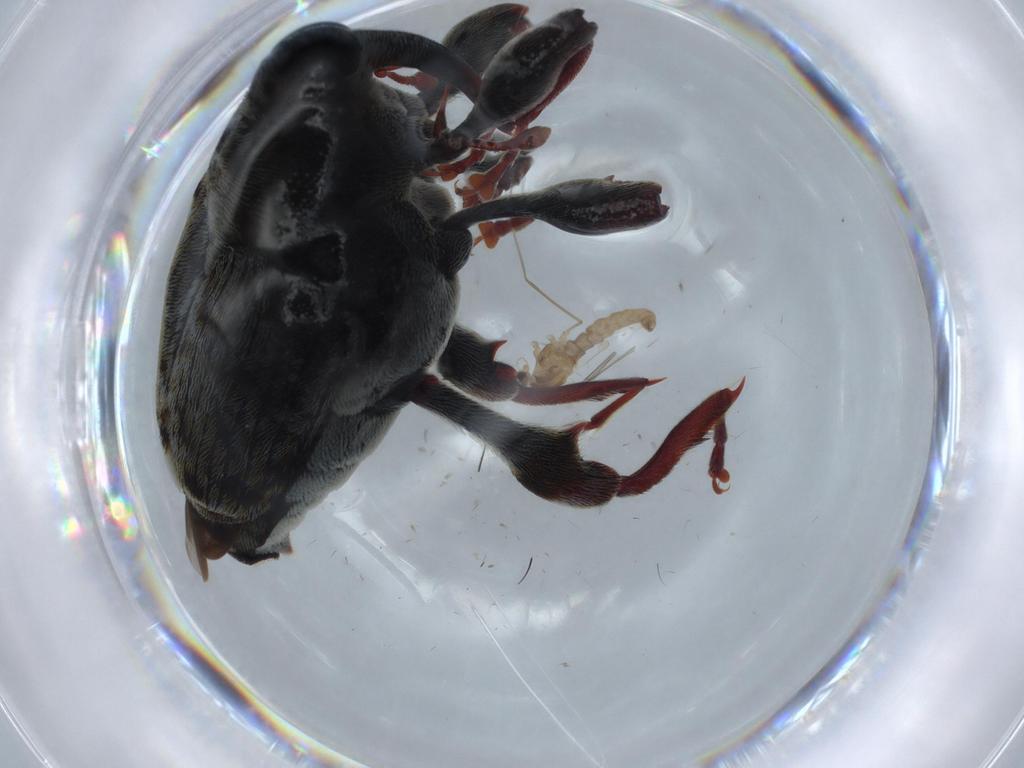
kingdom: Animalia
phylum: Arthropoda
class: Insecta
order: Diptera
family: Cecidomyiidae
